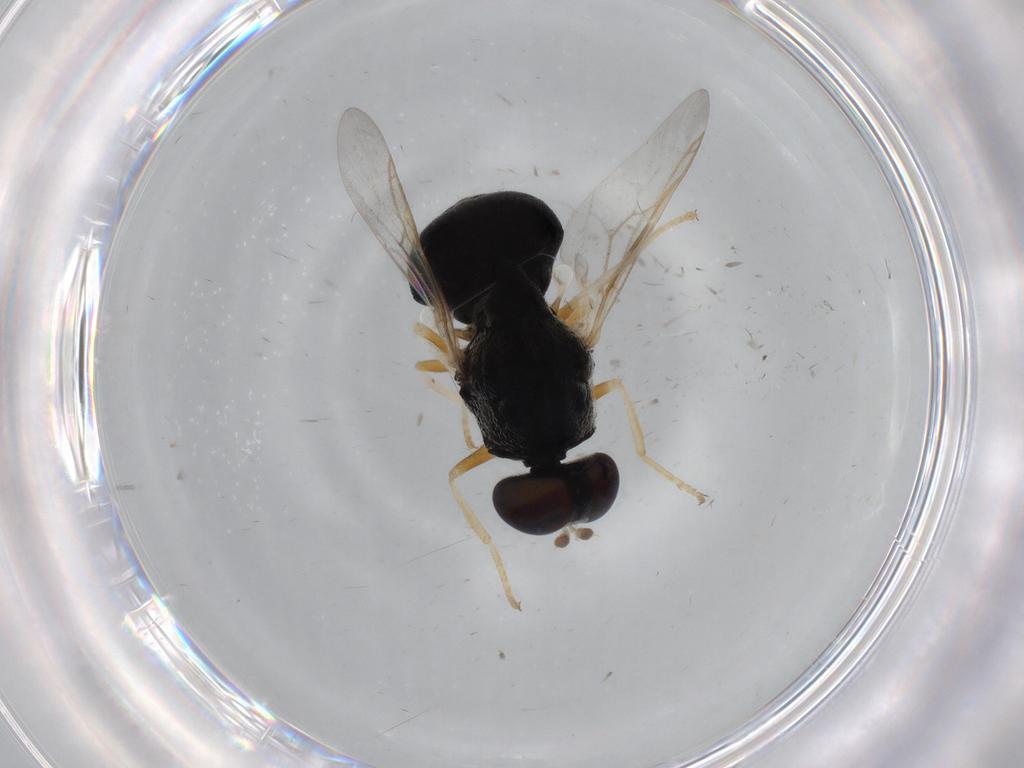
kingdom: Animalia
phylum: Arthropoda
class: Insecta
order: Diptera
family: Stratiomyidae
